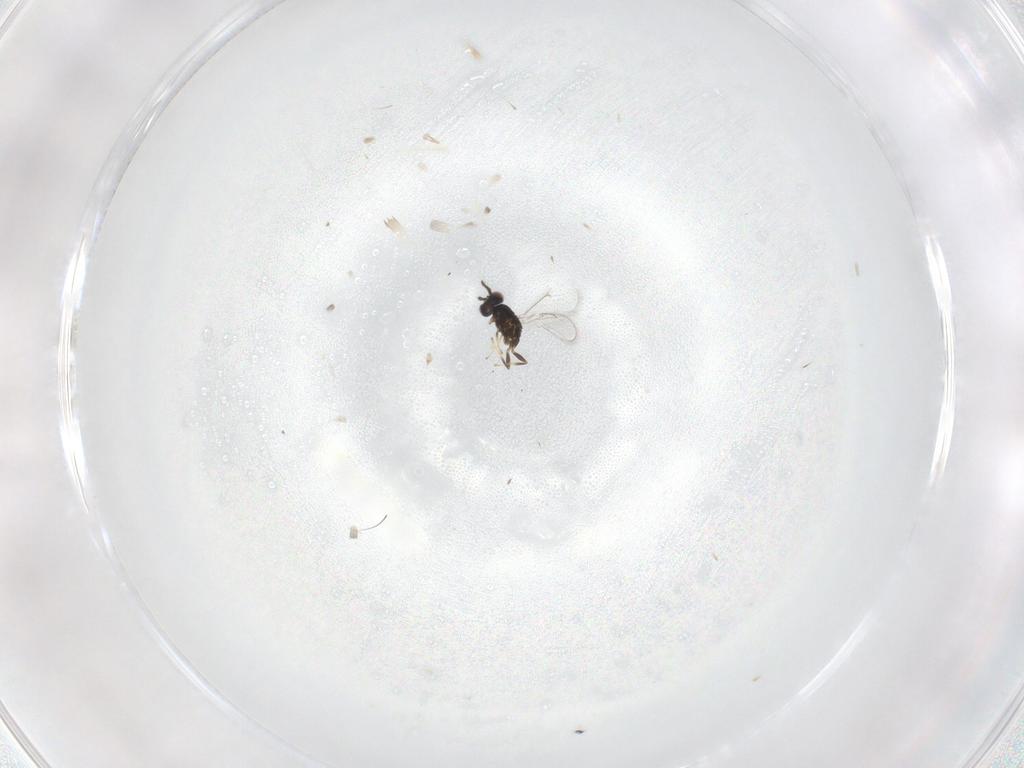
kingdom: Animalia
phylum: Arthropoda
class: Insecta
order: Hymenoptera
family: Eulophidae
